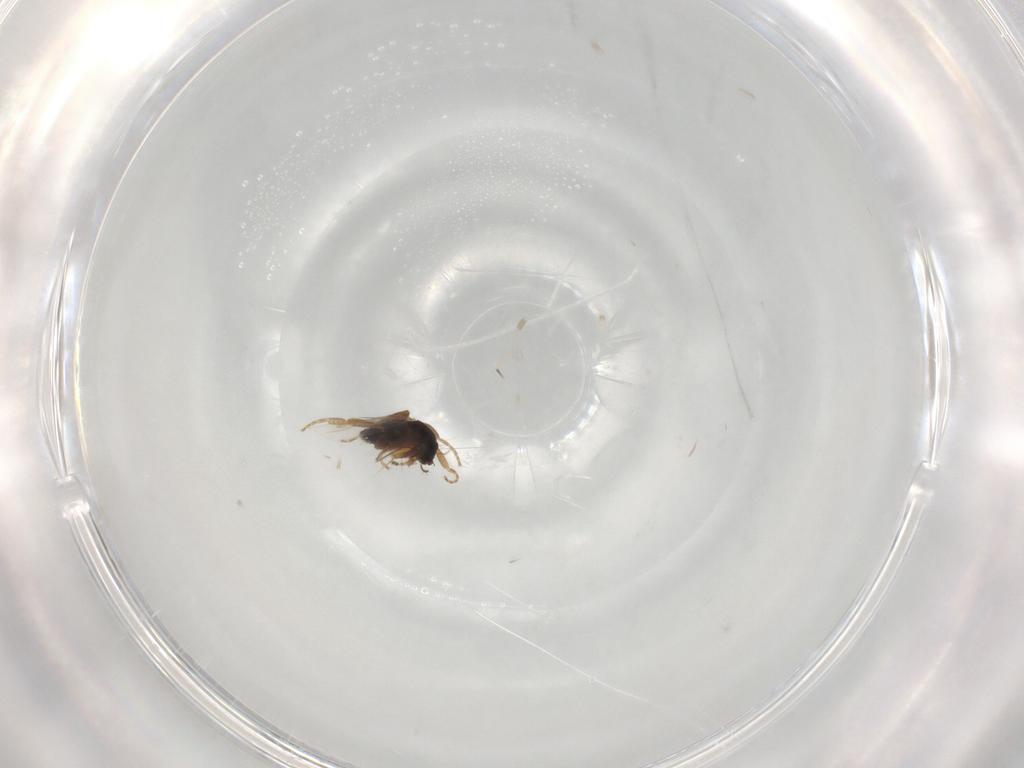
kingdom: Animalia
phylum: Arthropoda
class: Insecta
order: Diptera
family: Phoridae
